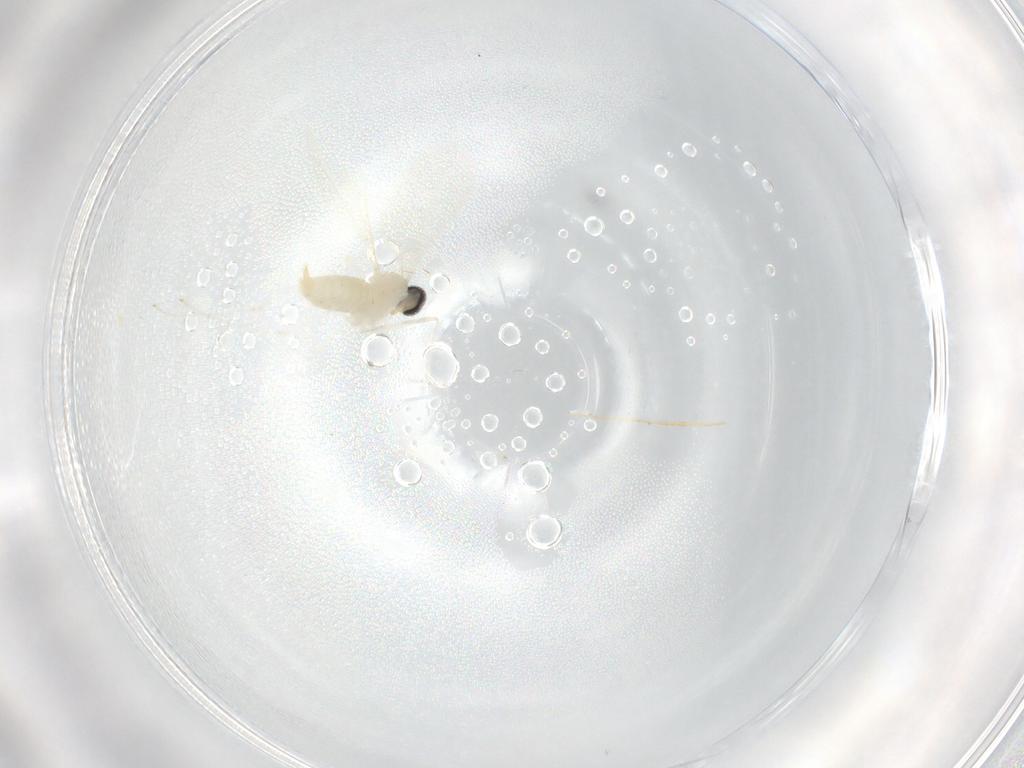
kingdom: Animalia
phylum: Arthropoda
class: Insecta
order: Diptera
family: Cecidomyiidae
